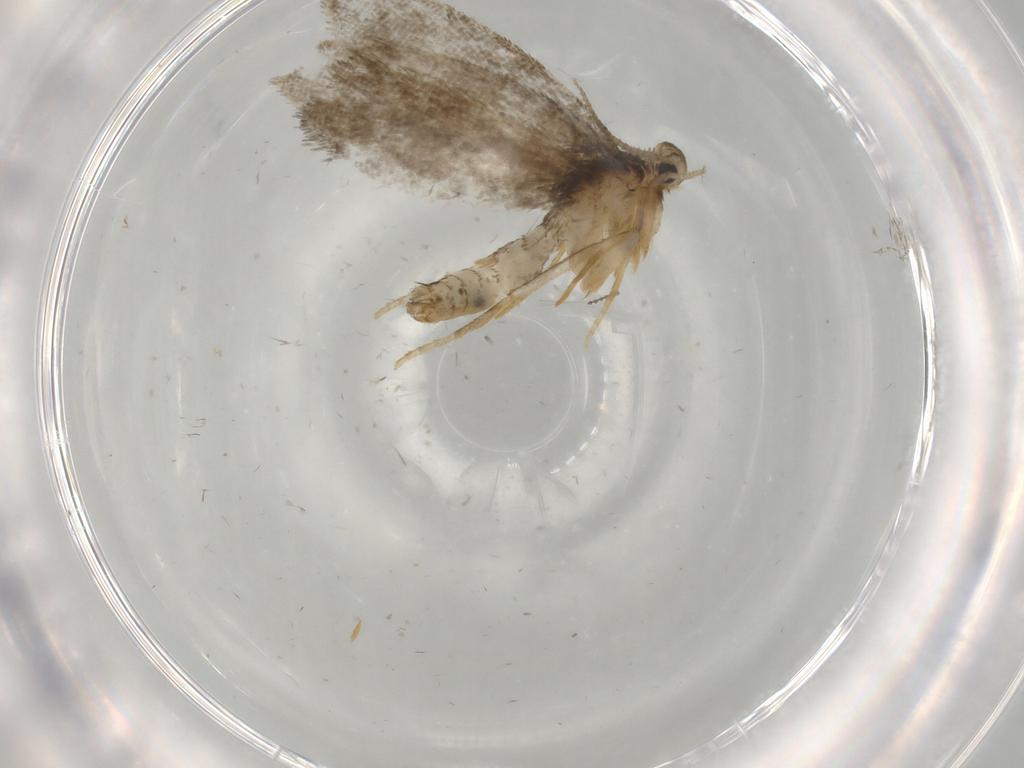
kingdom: Animalia
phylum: Arthropoda
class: Insecta
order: Lepidoptera
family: Psychidae
